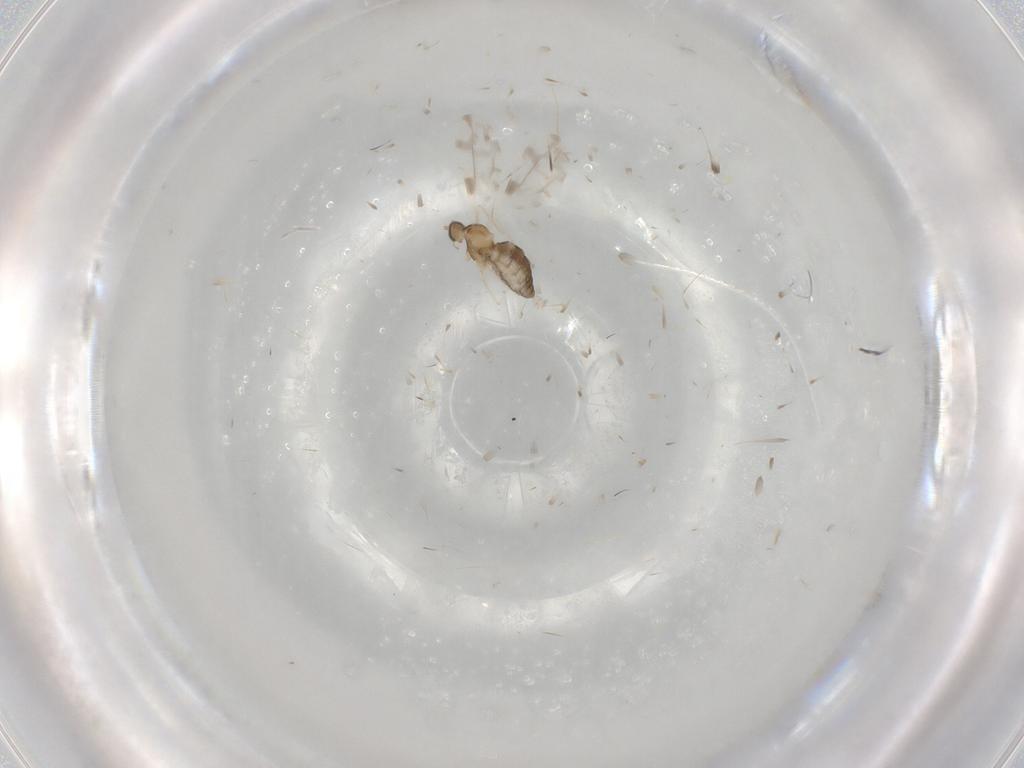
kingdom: Animalia
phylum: Arthropoda
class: Insecta
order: Diptera
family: Cecidomyiidae
